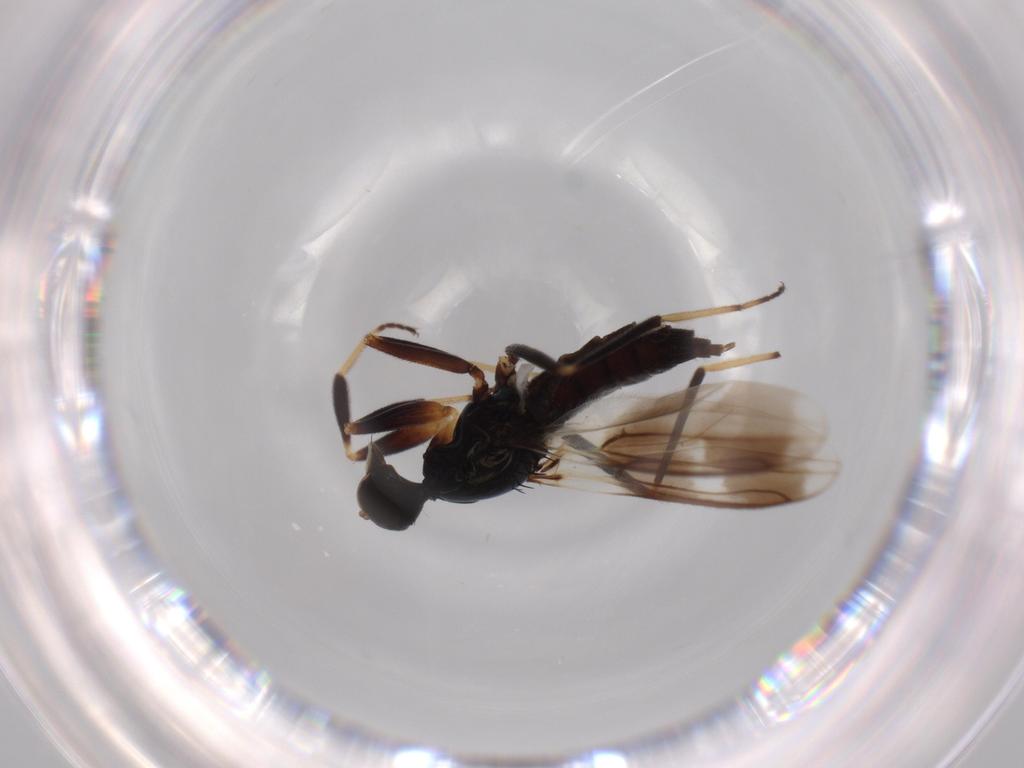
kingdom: Animalia
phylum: Arthropoda
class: Insecta
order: Diptera
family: Hybotidae
